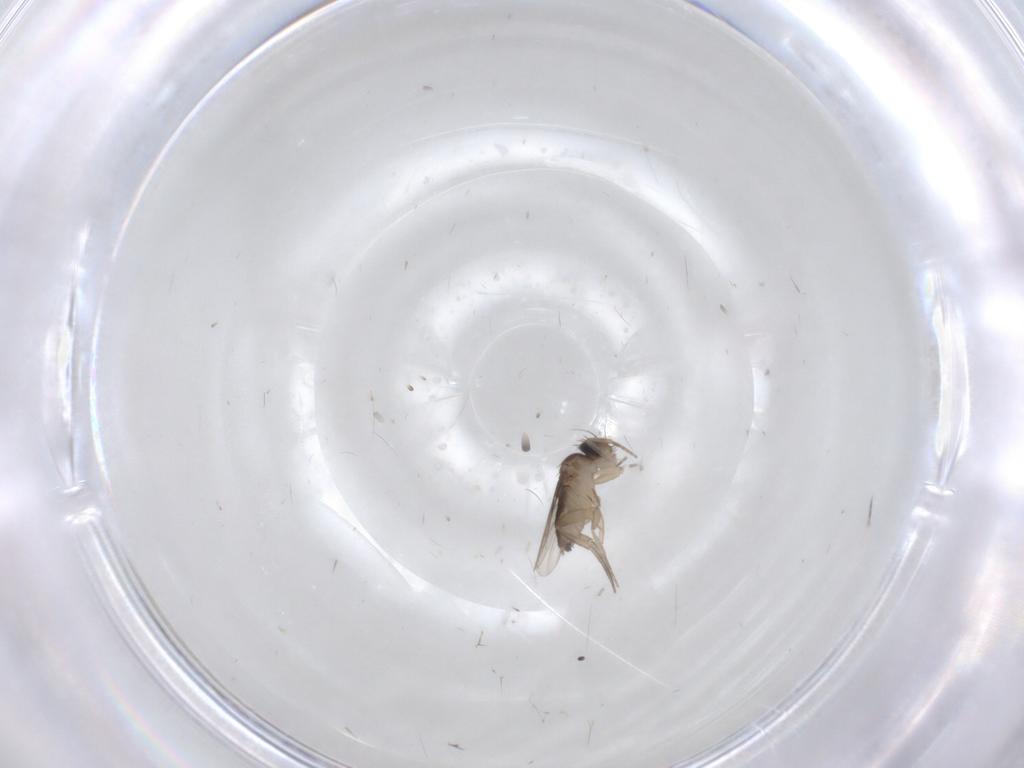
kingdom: Animalia
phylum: Arthropoda
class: Insecta
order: Diptera
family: Phoridae
